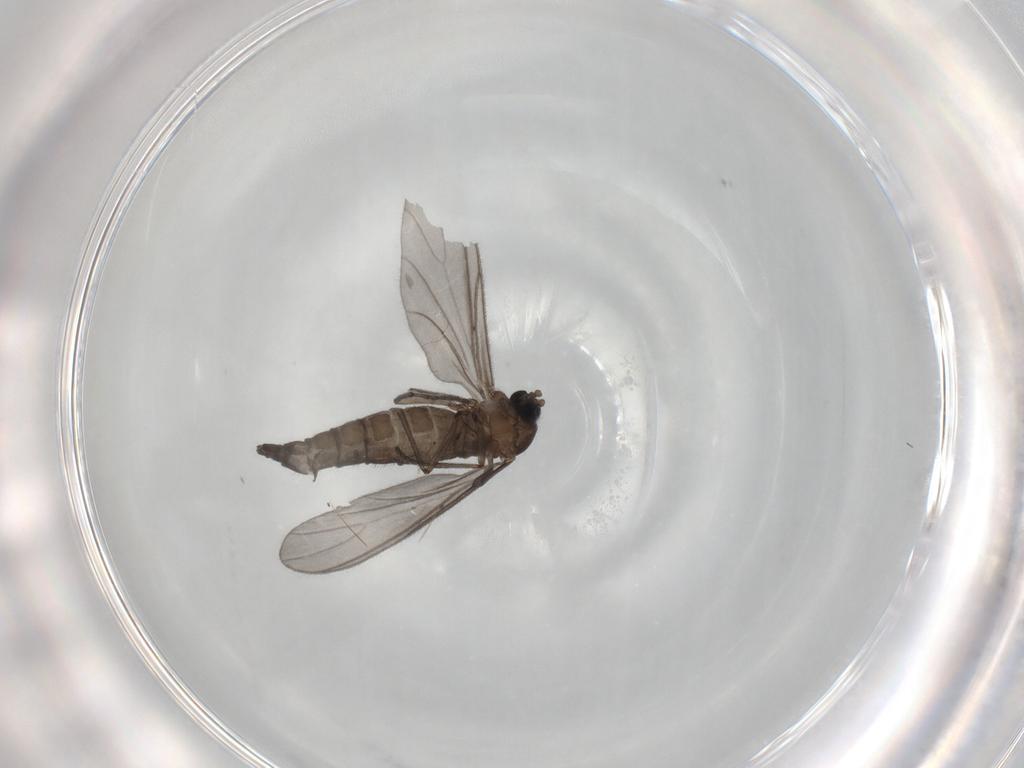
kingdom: Animalia
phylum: Arthropoda
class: Insecta
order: Diptera
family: Sciaridae
